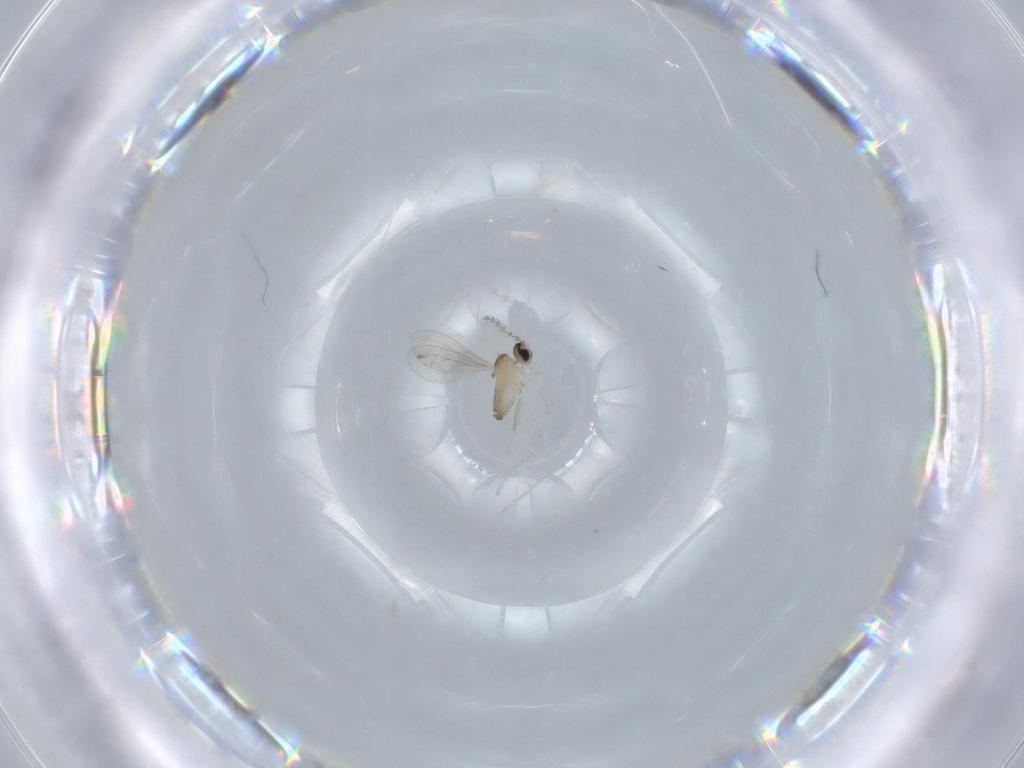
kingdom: Animalia
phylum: Arthropoda
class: Insecta
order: Diptera
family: Cecidomyiidae
